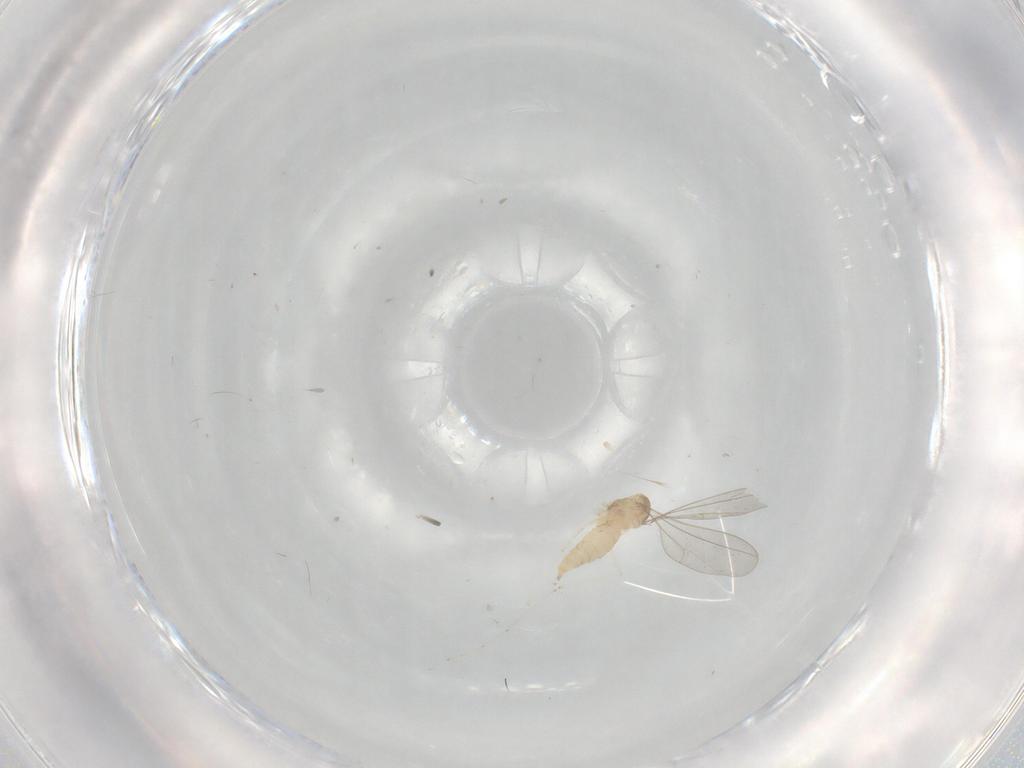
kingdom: Animalia
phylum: Arthropoda
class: Insecta
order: Diptera
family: Cecidomyiidae
